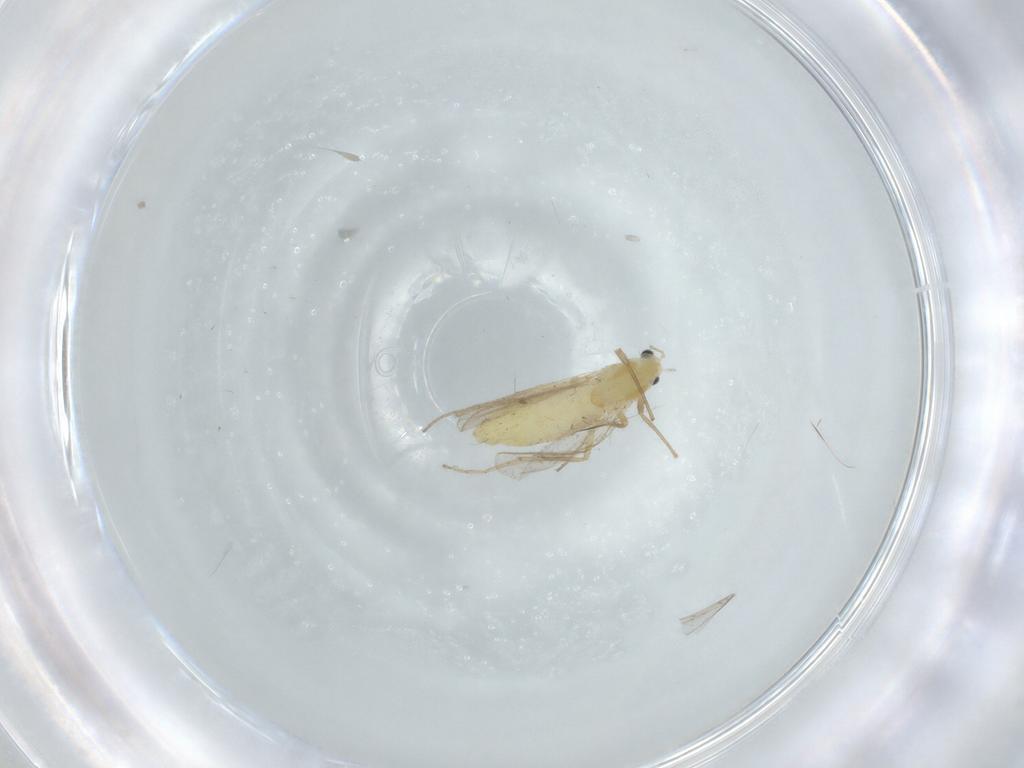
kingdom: Animalia
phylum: Arthropoda
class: Insecta
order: Diptera
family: Chironomidae
